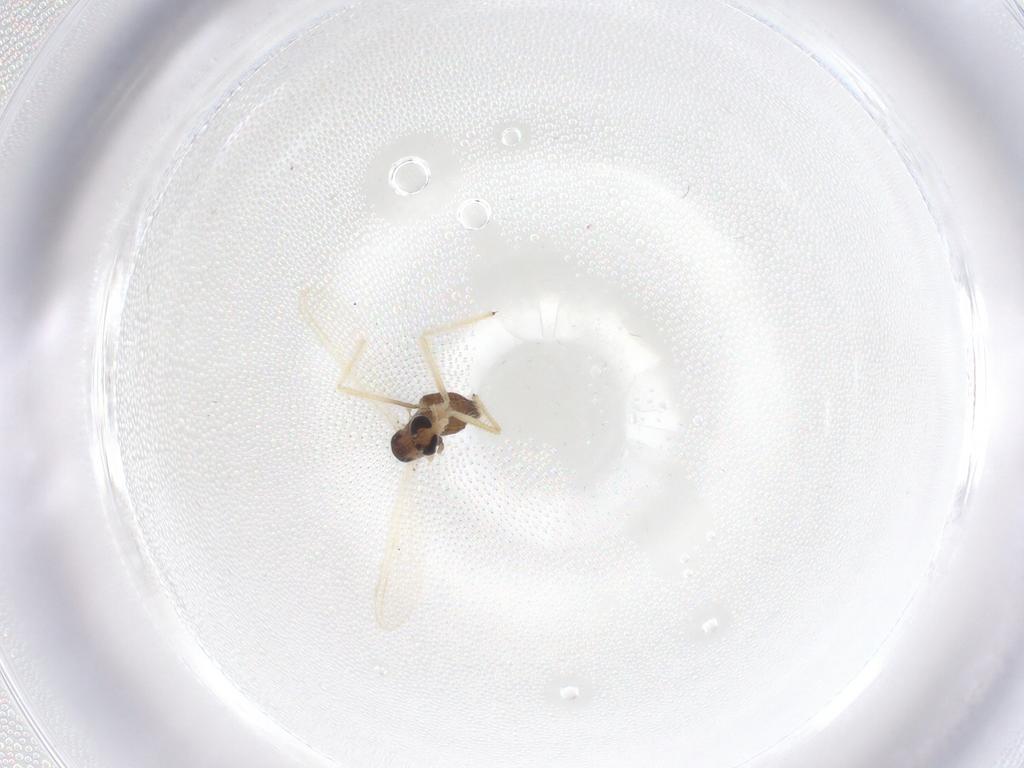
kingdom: Animalia
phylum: Arthropoda
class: Insecta
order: Diptera
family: Chironomidae
